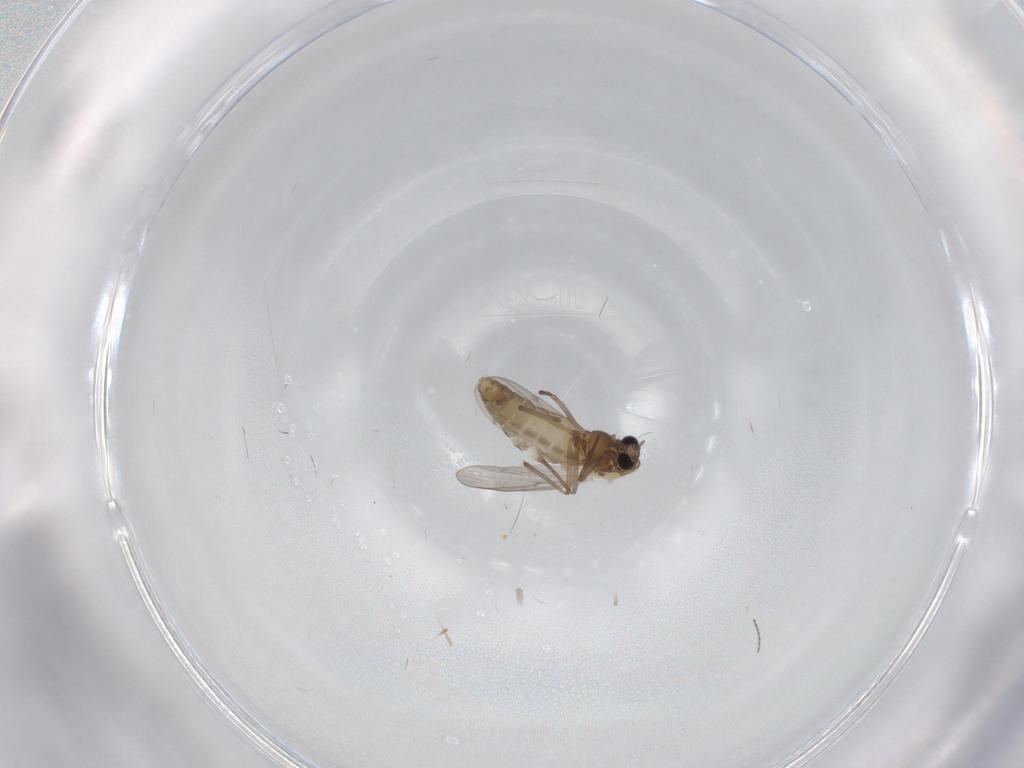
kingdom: Animalia
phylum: Arthropoda
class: Insecta
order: Diptera
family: Chironomidae
